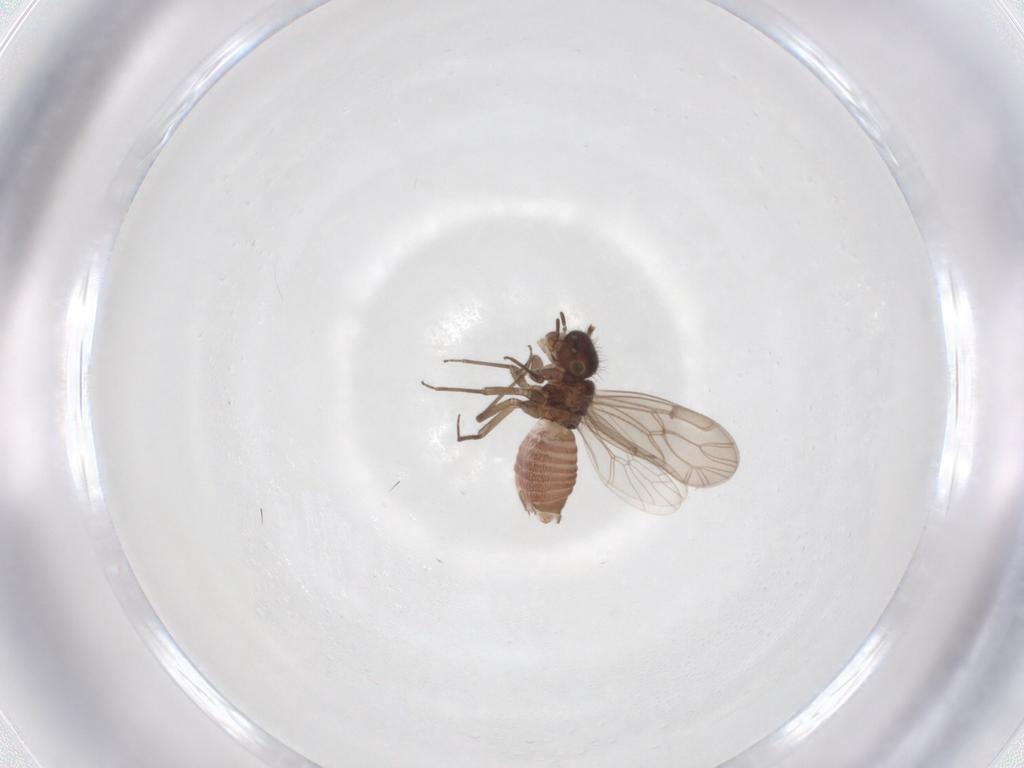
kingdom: Animalia
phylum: Arthropoda
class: Insecta
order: Psocodea
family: Ectopsocidae
